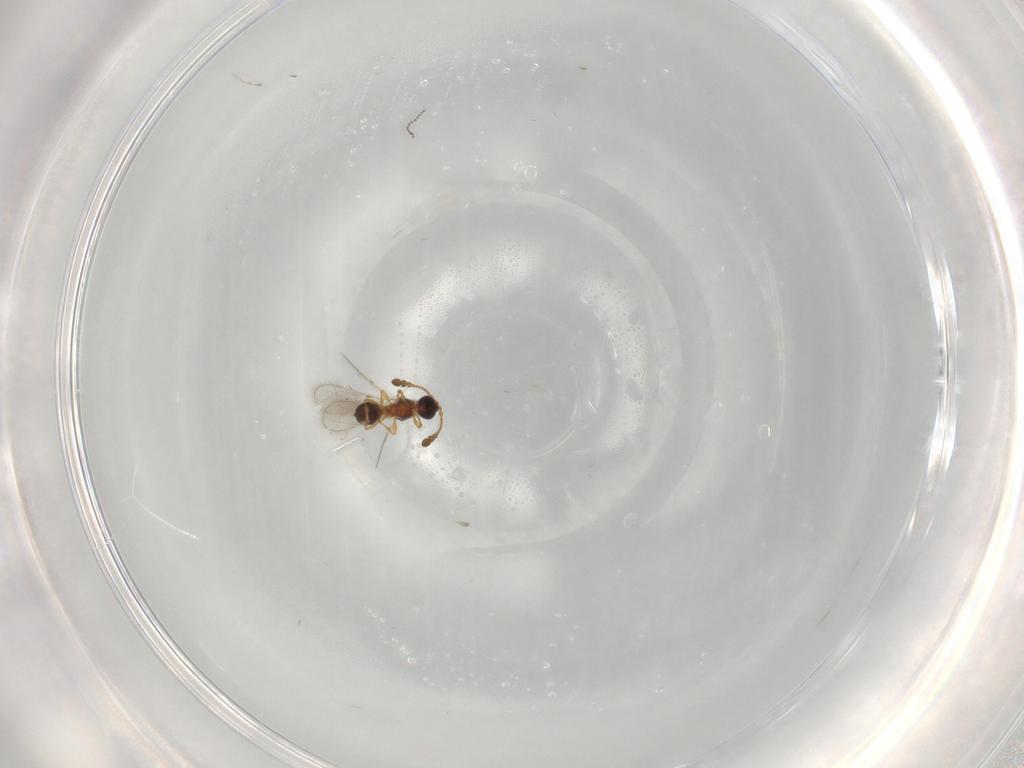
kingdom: Animalia
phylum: Arthropoda
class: Insecta
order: Hymenoptera
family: Diapriidae
